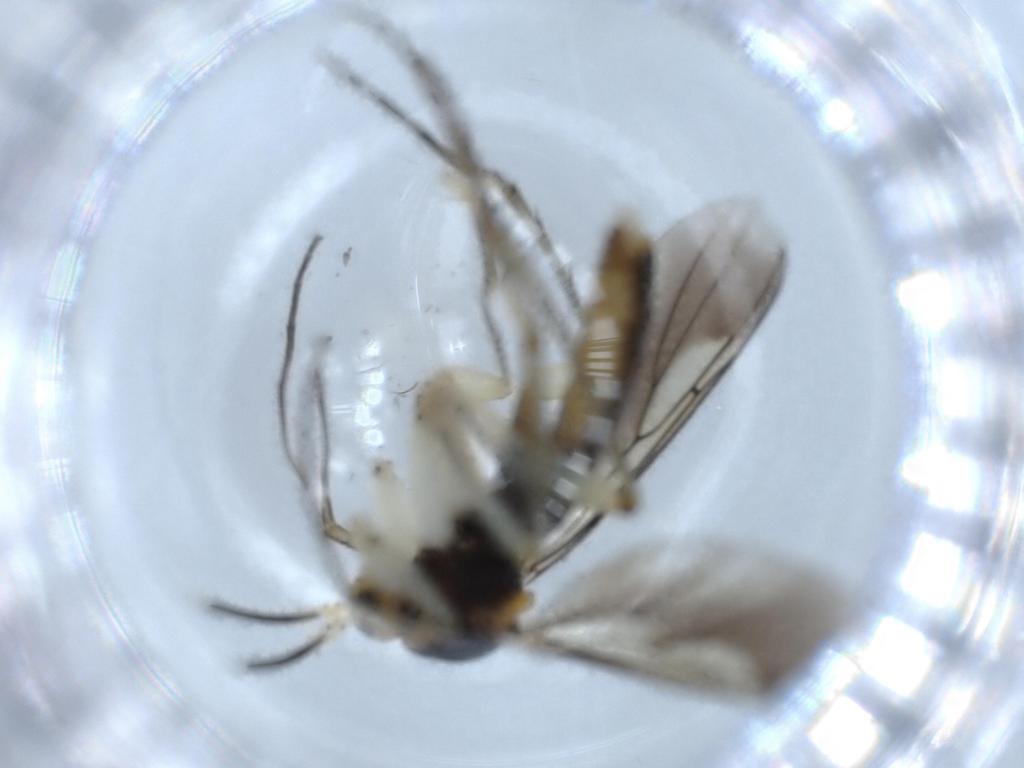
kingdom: Animalia
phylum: Arthropoda
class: Insecta
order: Diptera
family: Mycetophilidae
